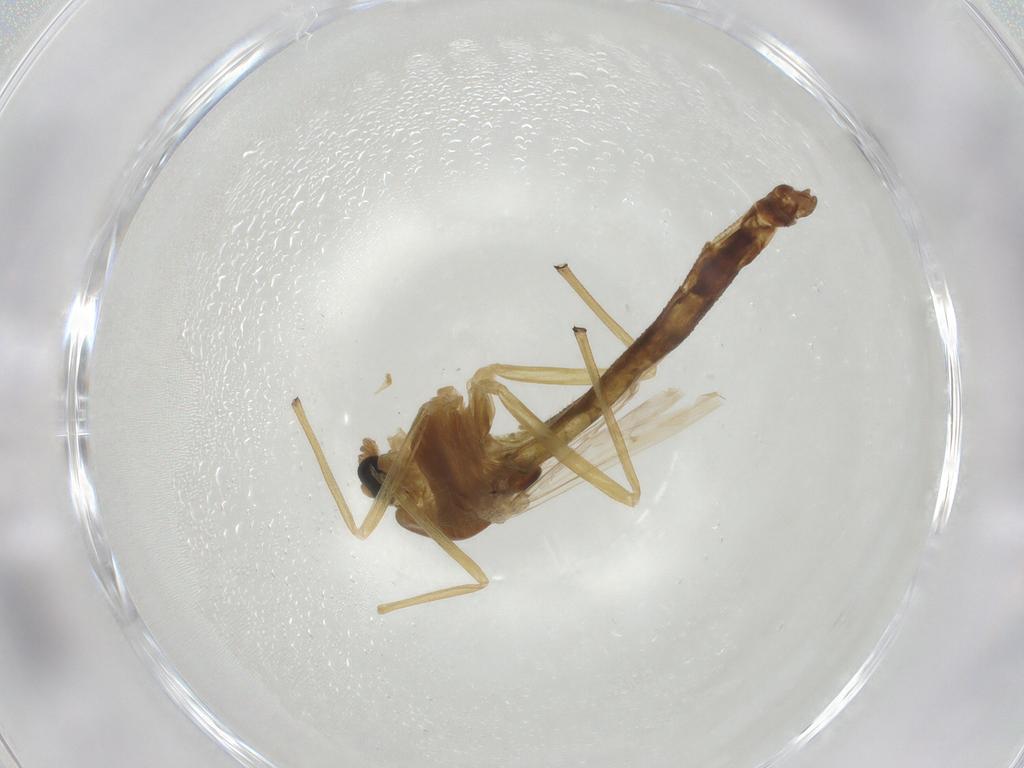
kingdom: Animalia
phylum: Arthropoda
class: Insecta
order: Diptera
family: Chironomidae
